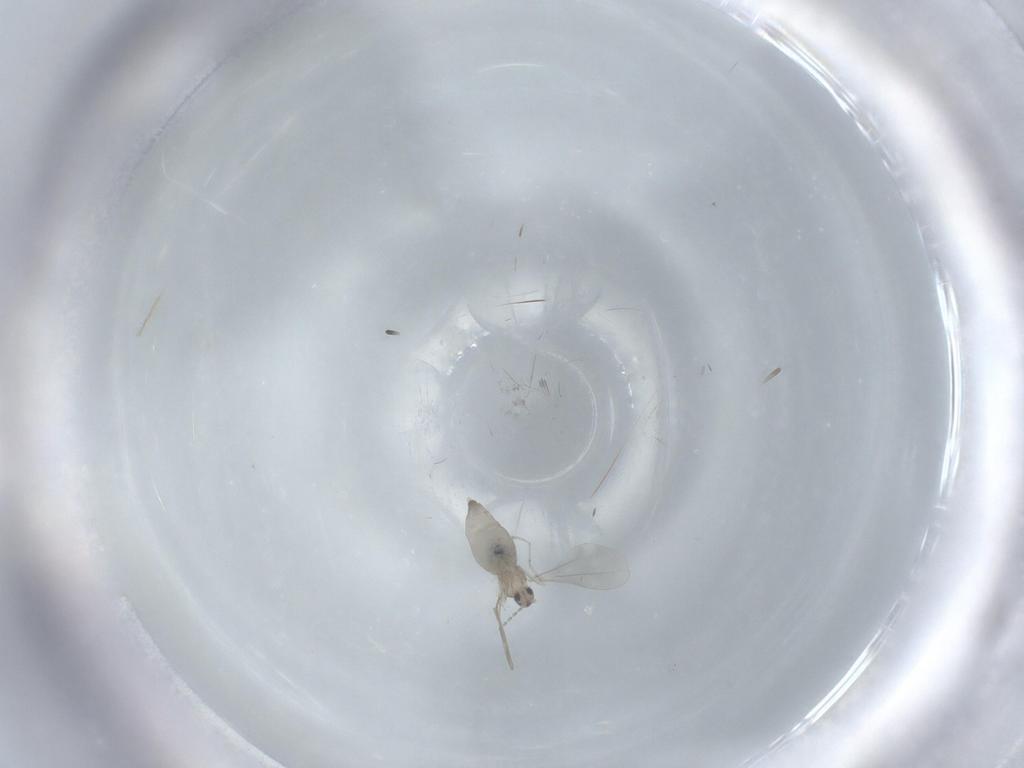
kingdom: Animalia
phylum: Arthropoda
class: Insecta
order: Diptera
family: Cecidomyiidae
